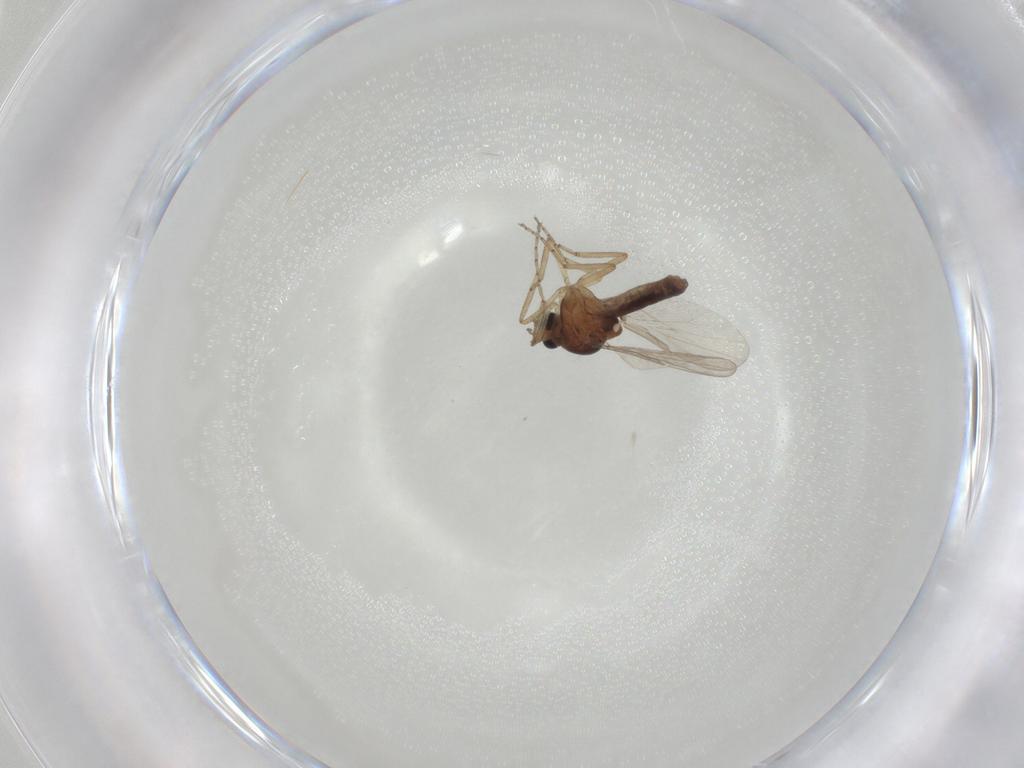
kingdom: Animalia
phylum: Arthropoda
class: Insecta
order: Diptera
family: Ceratopogonidae
